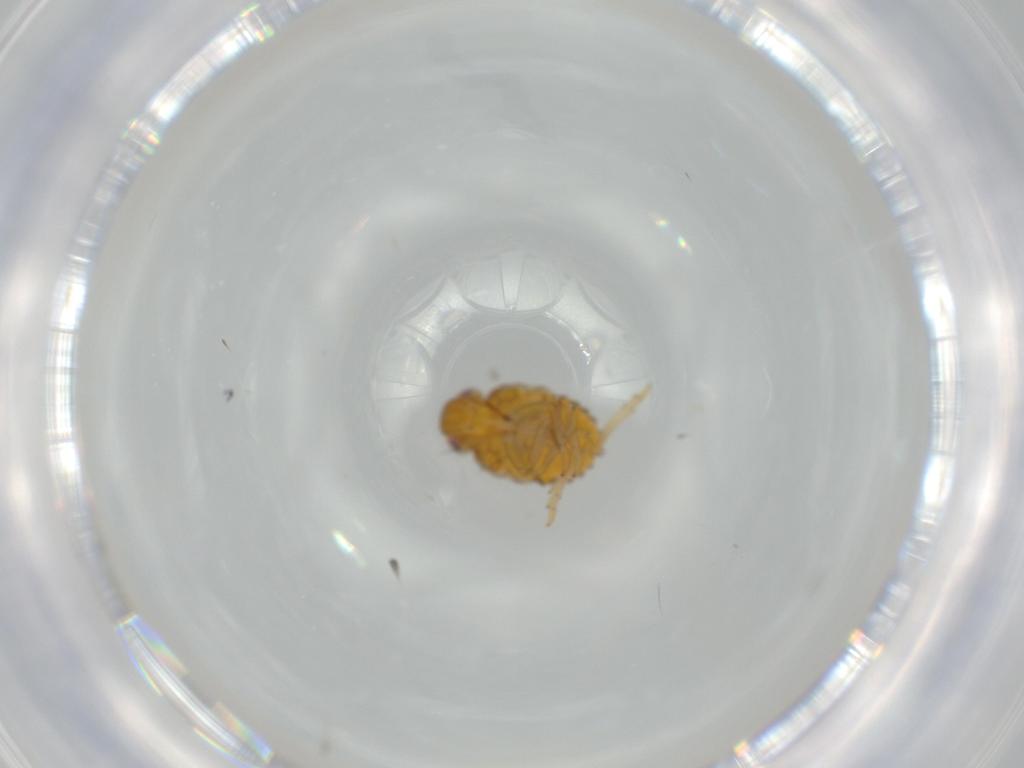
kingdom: Animalia
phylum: Arthropoda
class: Insecta
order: Hemiptera
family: Issidae
